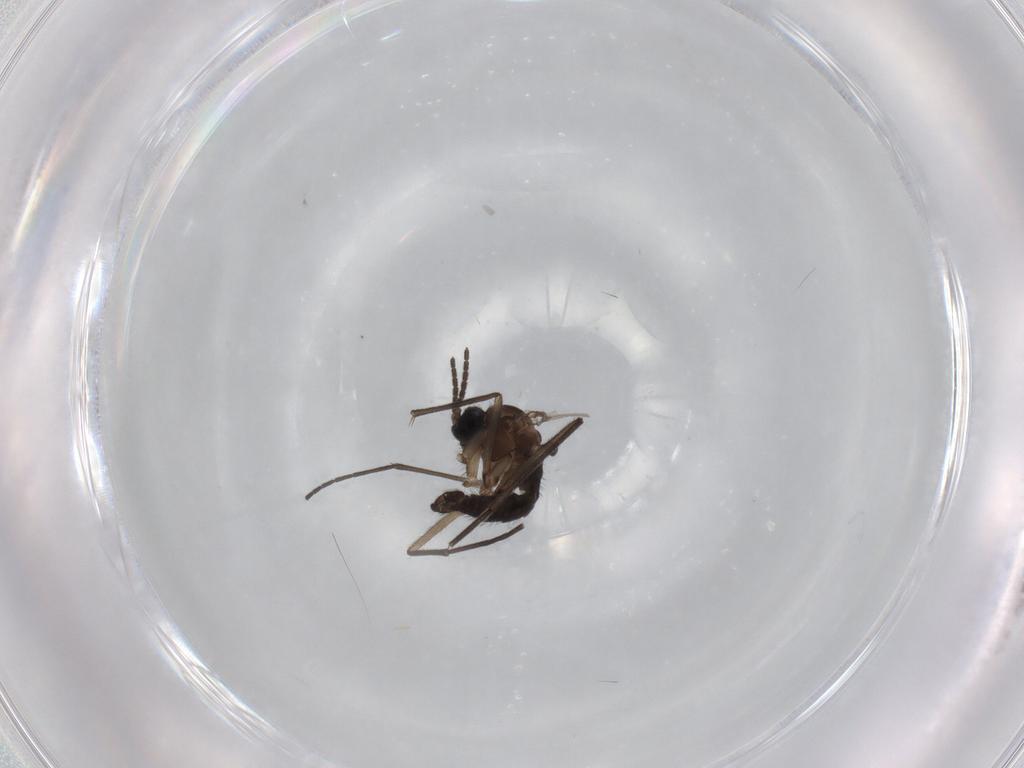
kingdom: Animalia
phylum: Arthropoda
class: Insecta
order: Diptera
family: Sciaridae
